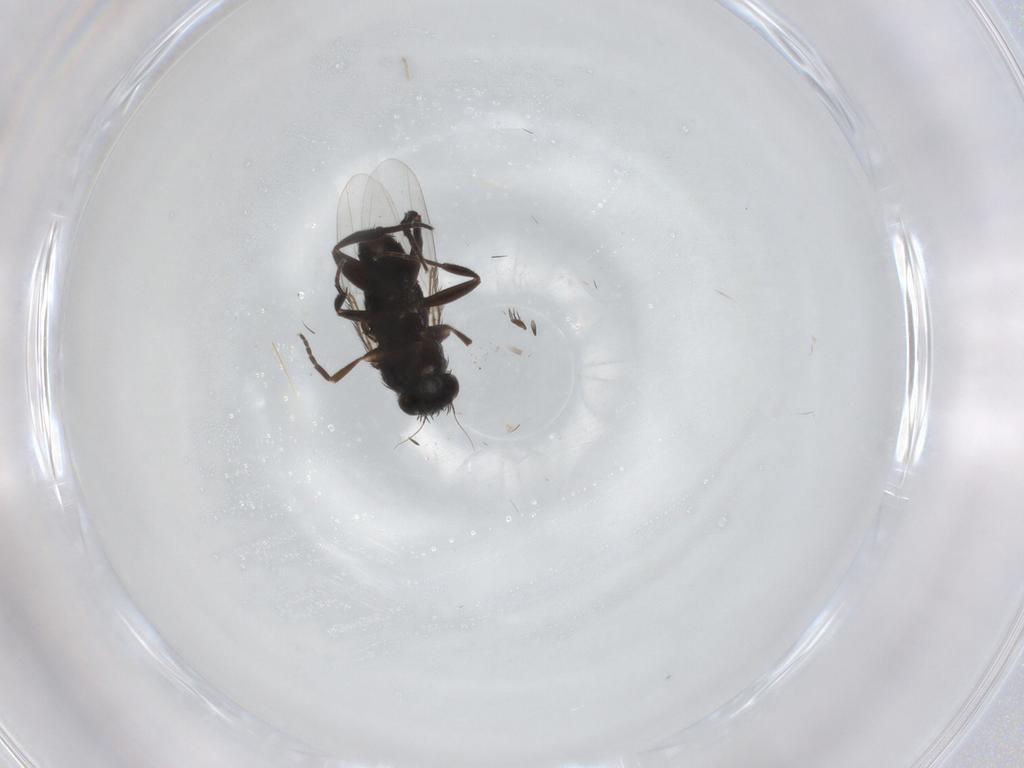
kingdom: Animalia
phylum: Arthropoda
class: Insecta
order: Diptera
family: Phoridae
